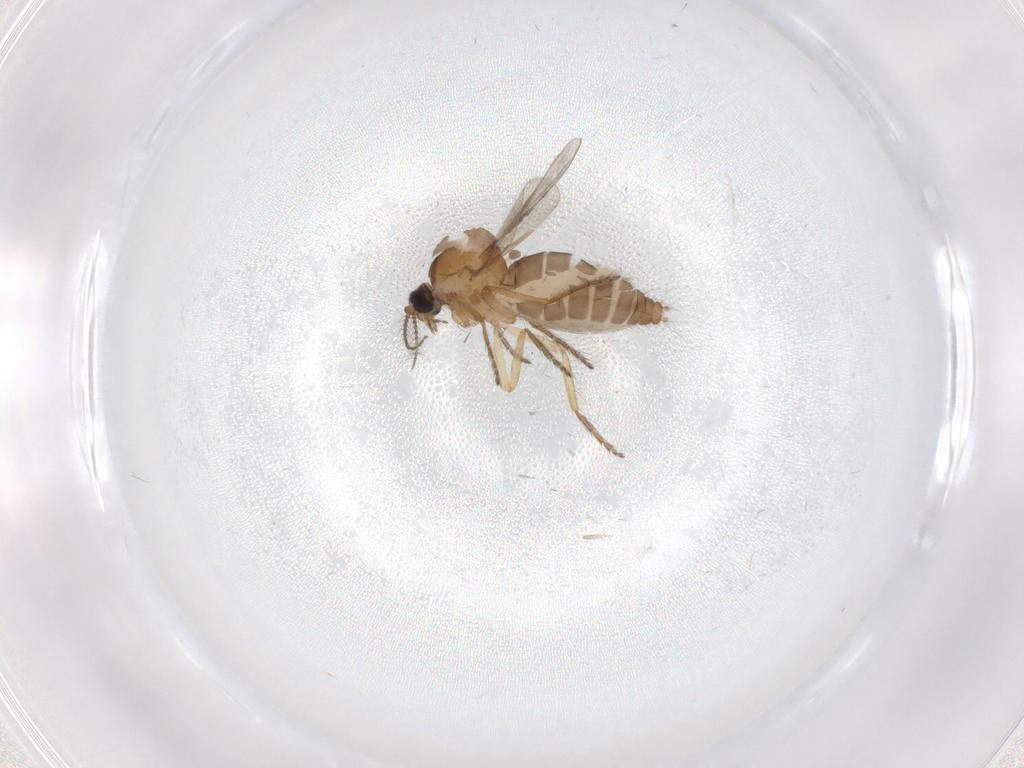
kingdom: Animalia
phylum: Arthropoda
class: Insecta
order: Diptera
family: Ceratopogonidae
